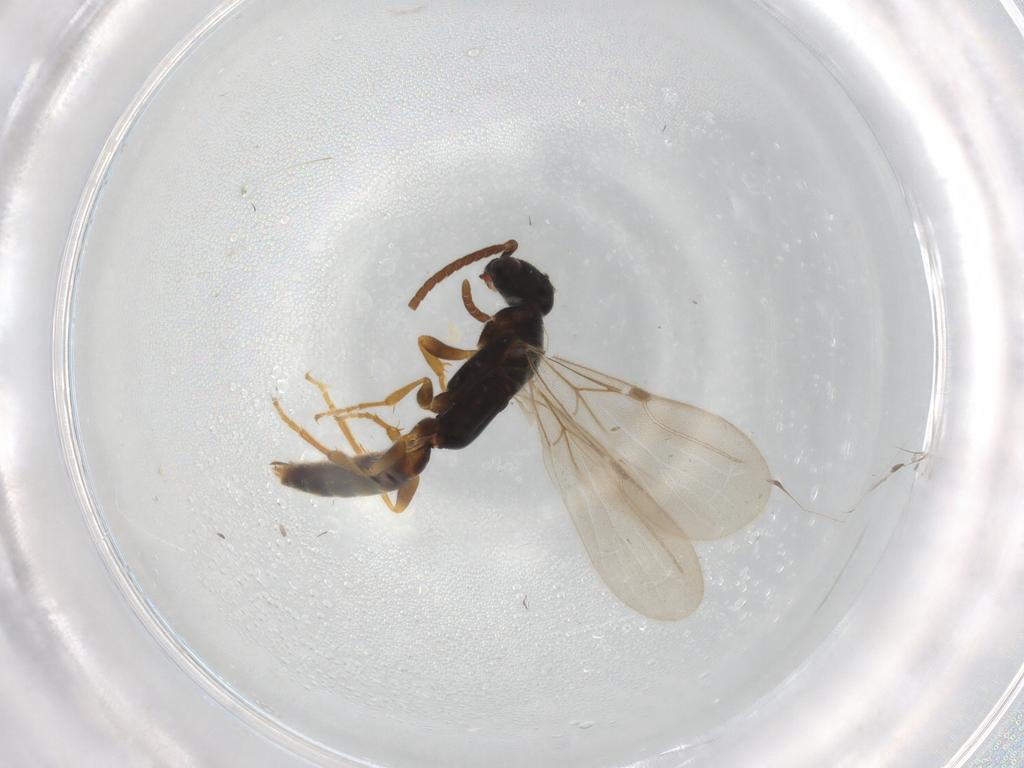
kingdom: Animalia
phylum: Arthropoda
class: Insecta
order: Hymenoptera
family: Bethylidae
